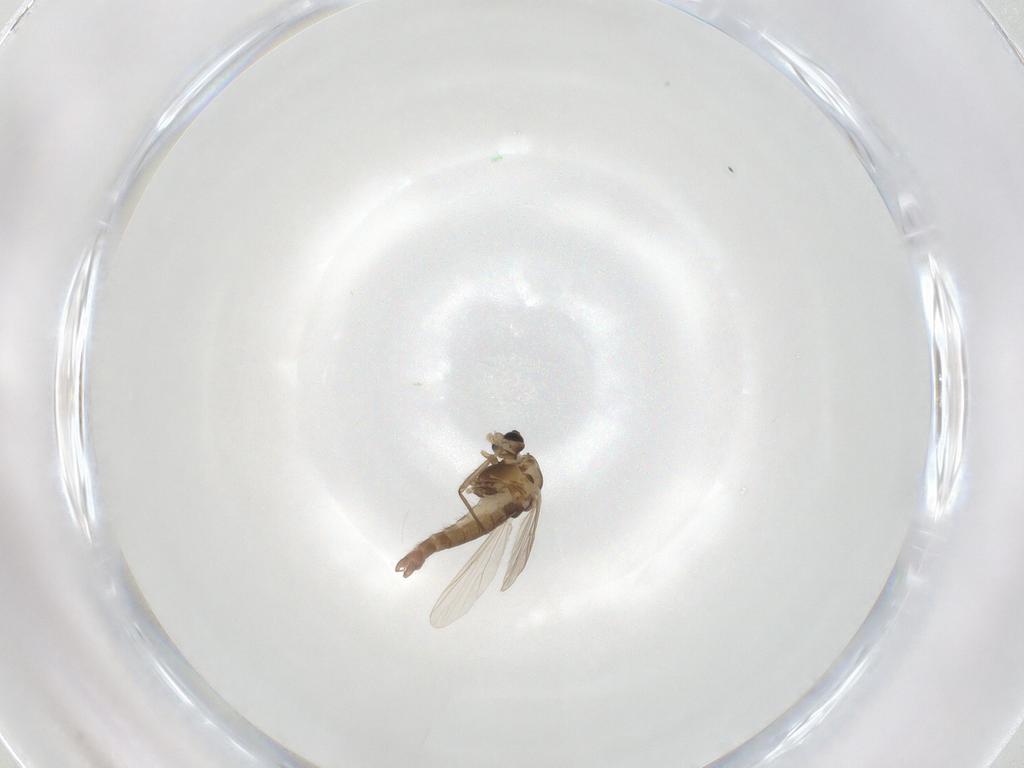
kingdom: Animalia
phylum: Arthropoda
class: Insecta
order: Diptera
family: Chironomidae
